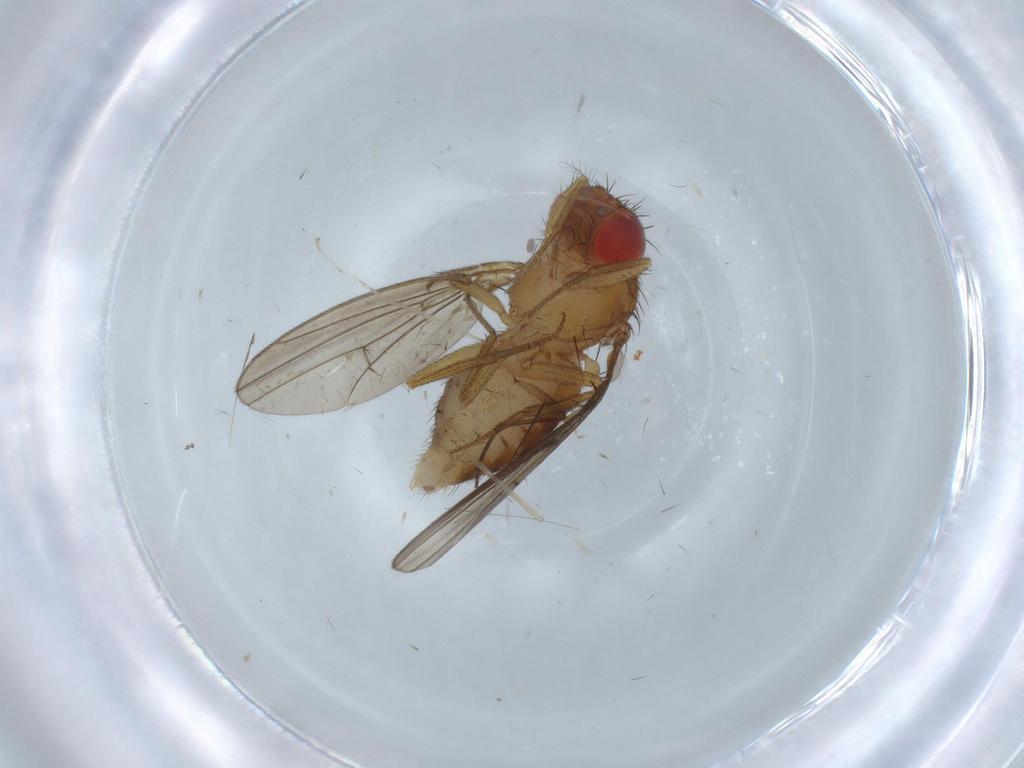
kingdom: Animalia
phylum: Arthropoda
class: Insecta
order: Diptera
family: Drosophilidae
